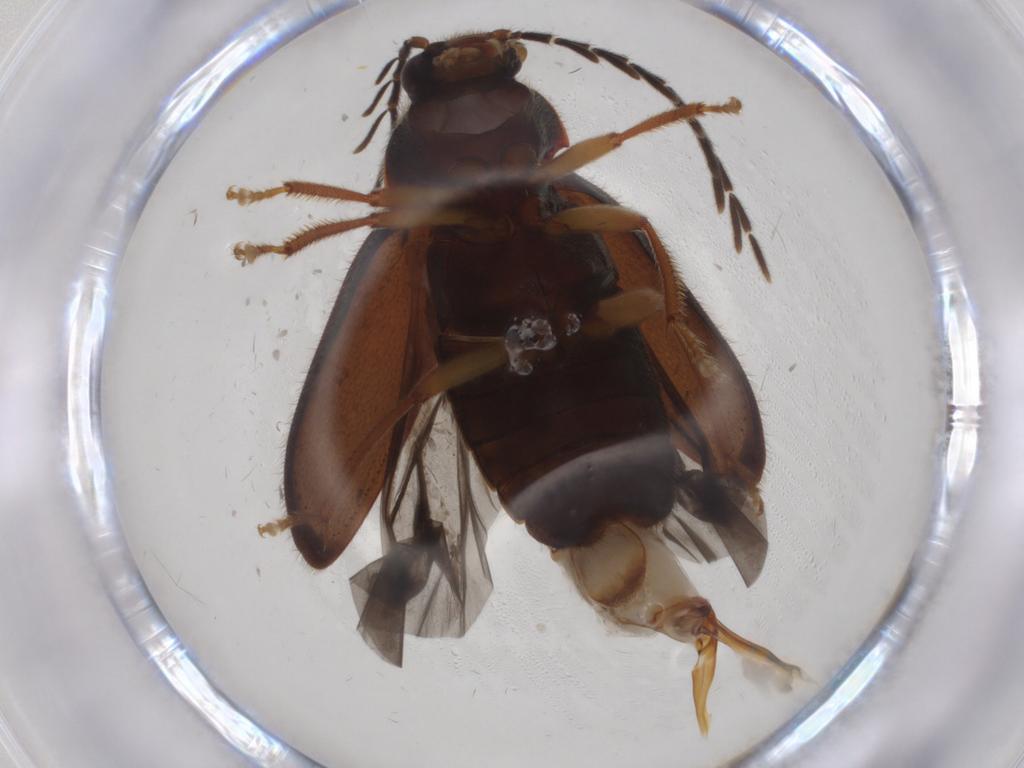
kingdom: Animalia
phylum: Arthropoda
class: Insecta
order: Coleoptera
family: Ptilodactylidae
